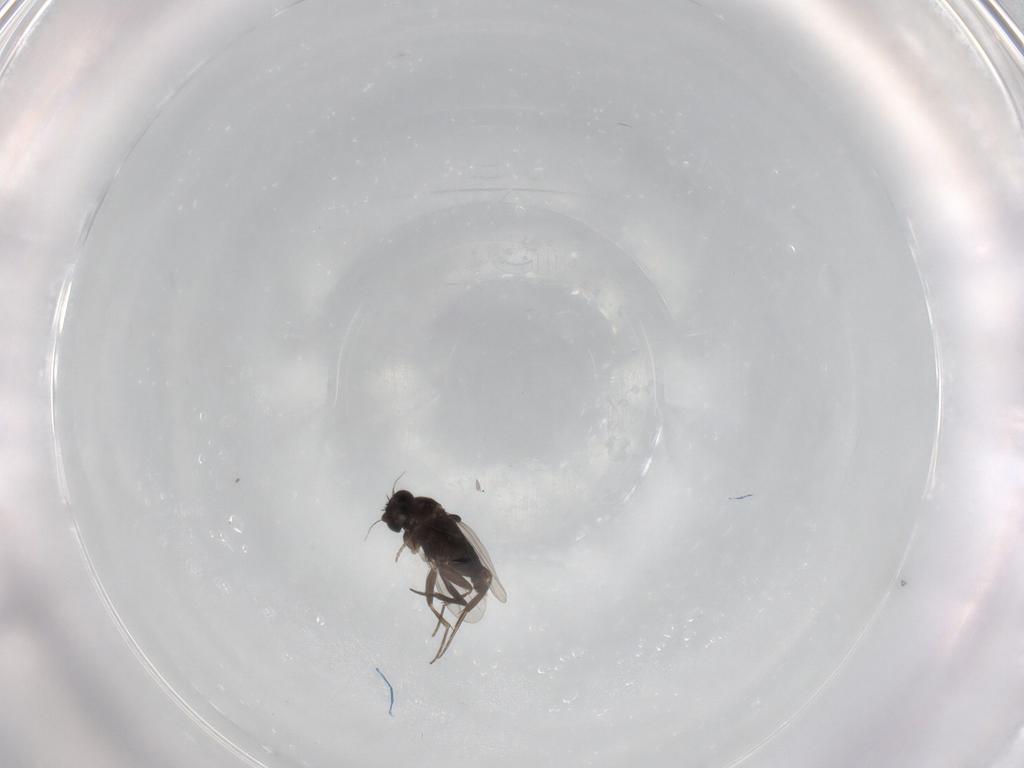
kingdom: Animalia
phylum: Arthropoda
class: Insecta
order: Diptera
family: Phoridae
